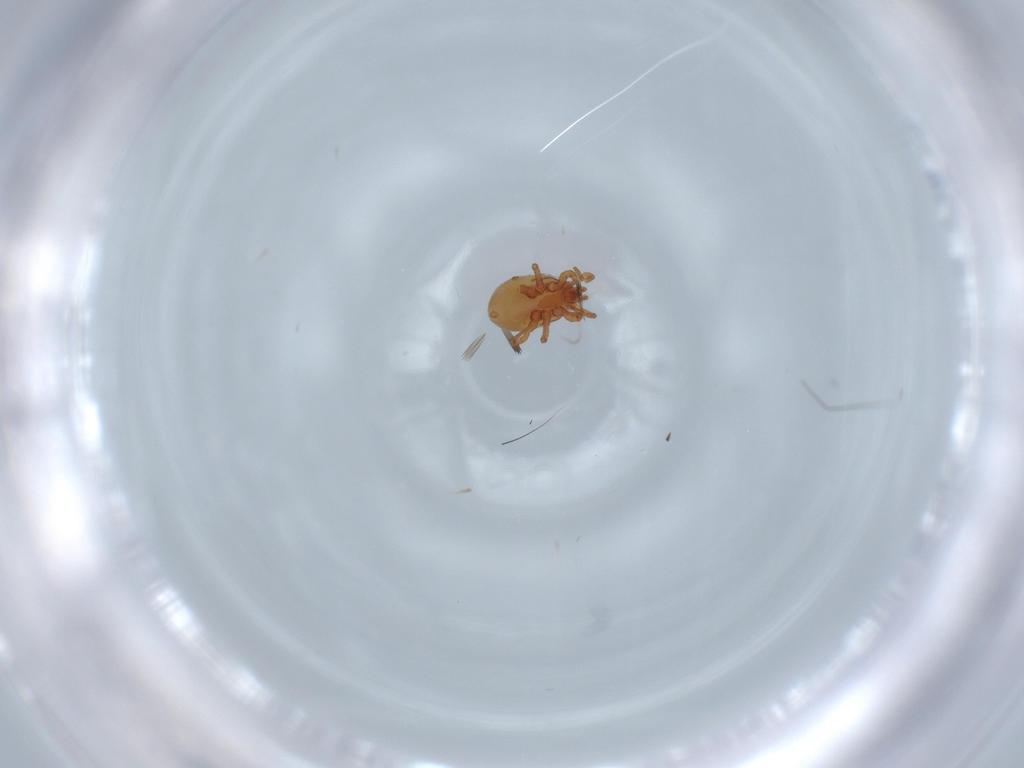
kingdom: Animalia
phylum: Arthropoda
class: Arachnida
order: Mesostigmata
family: Parasitidae
